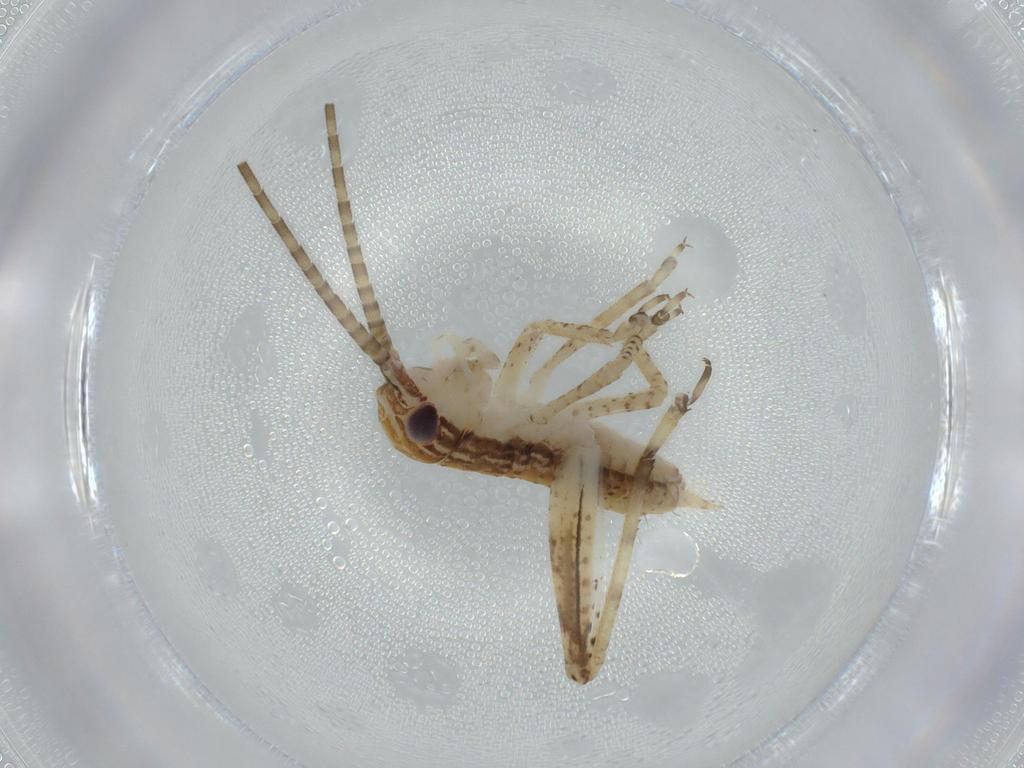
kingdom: Animalia
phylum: Arthropoda
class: Insecta
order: Orthoptera
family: Gryllidae
